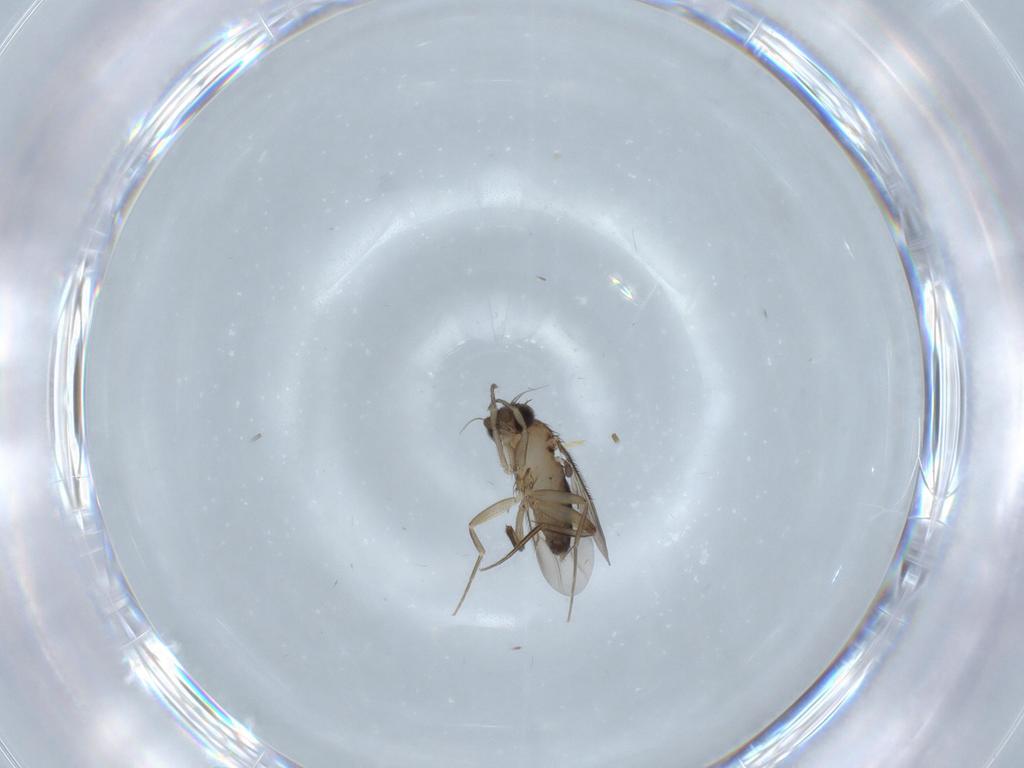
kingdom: Animalia
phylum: Arthropoda
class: Insecta
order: Diptera
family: Phoridae
